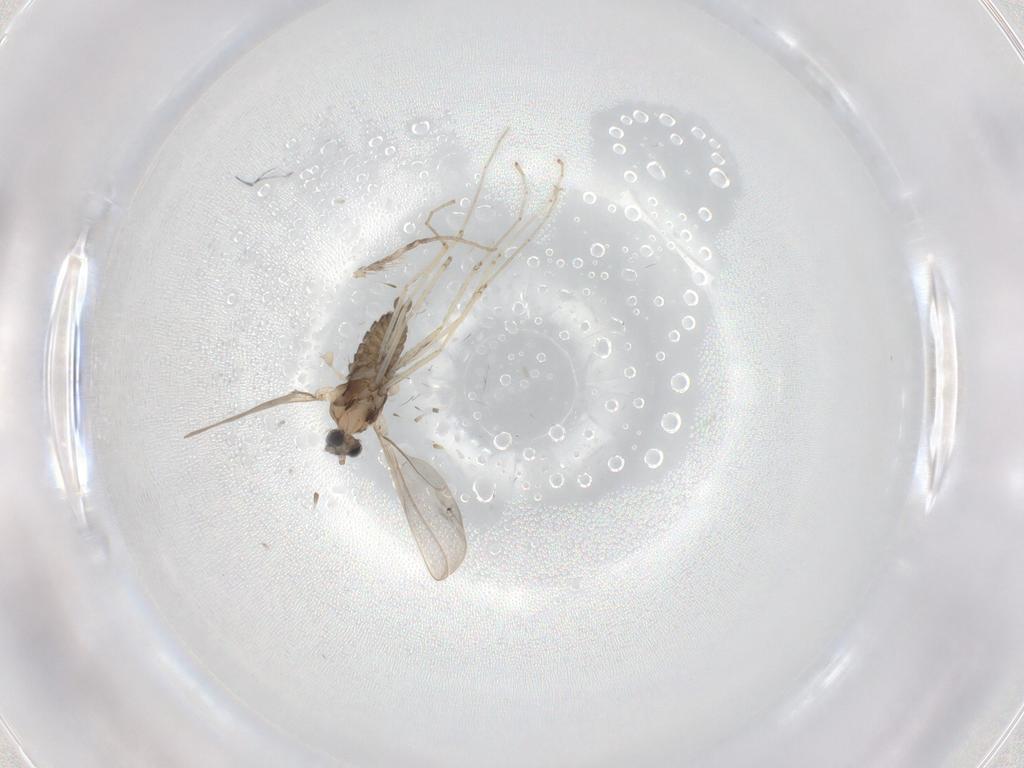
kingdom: Animalia
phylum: Arthropoda
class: Insecta
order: Diptera
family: Cecidomyiidae
